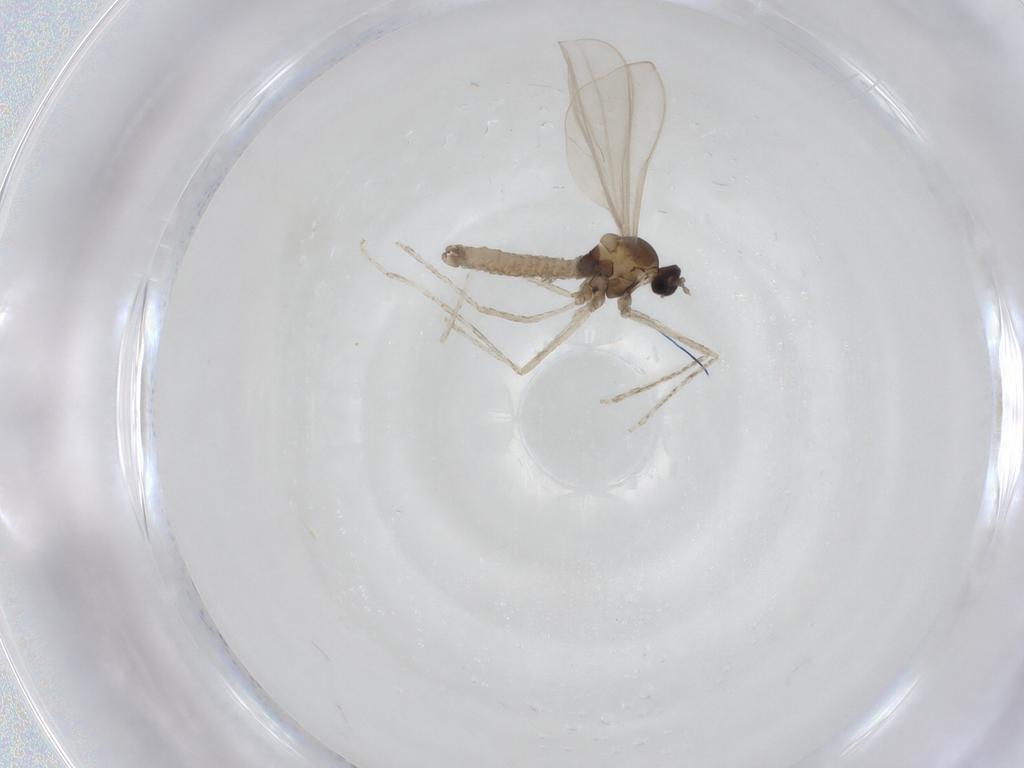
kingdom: Animalia
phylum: Arthropoda
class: Insecta
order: Diptera
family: Cecidomyiidae
